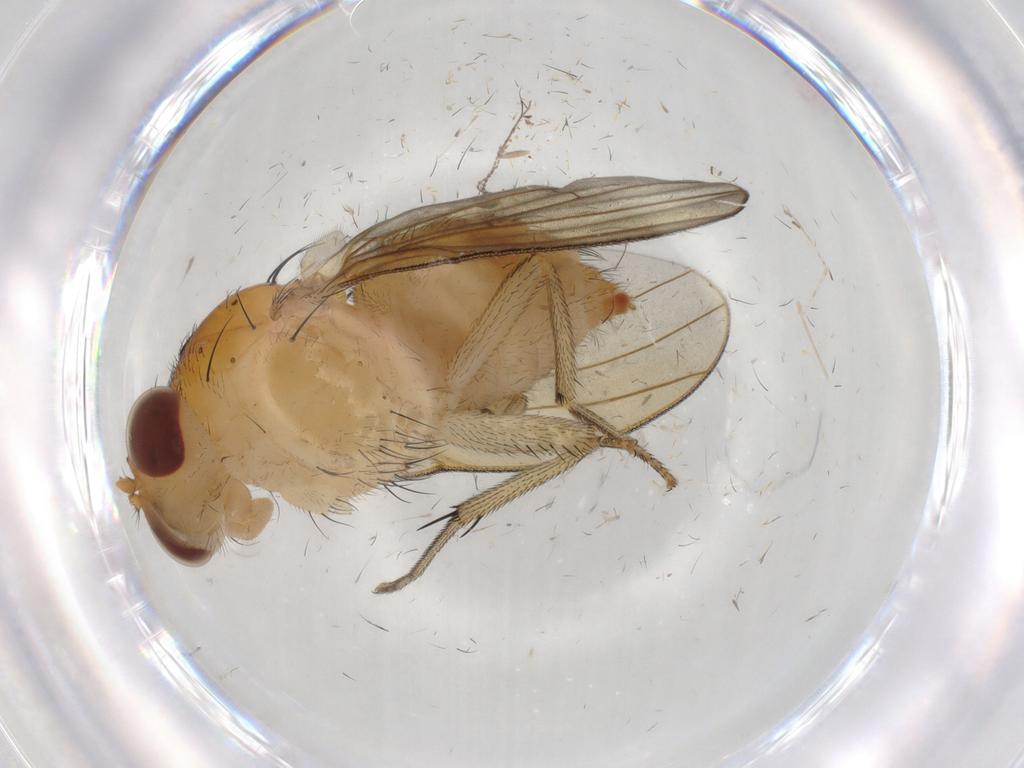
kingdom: Animalia
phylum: Arthropoda
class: Insecta
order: Diptera
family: Cecidomyiidae
